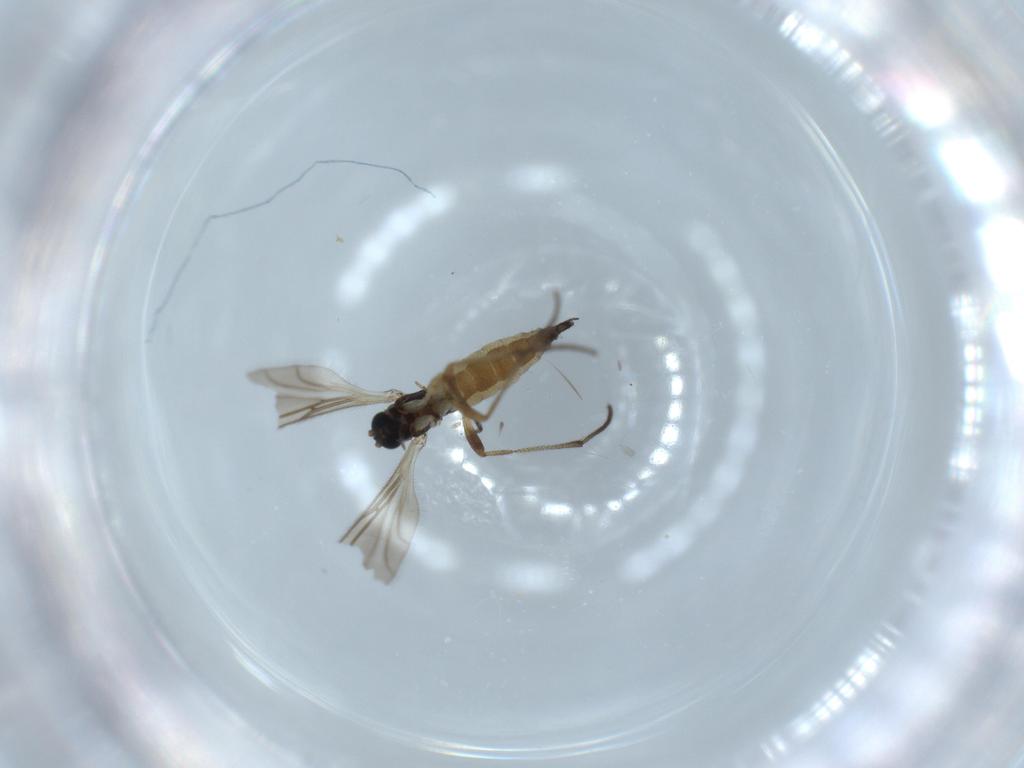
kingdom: Animalia
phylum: Arthropoda
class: Insecta
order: Diptera
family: Sciaridae
